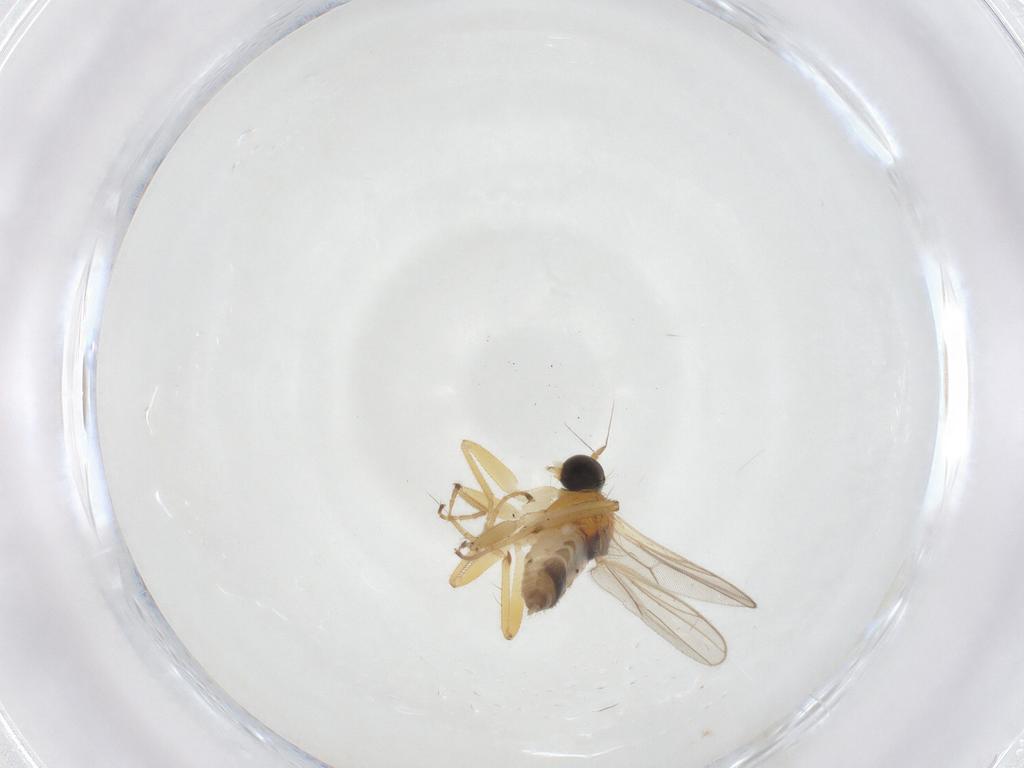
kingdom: Animalia
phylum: Arthropoda
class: Insecta
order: Diptera
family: Hybotidae
